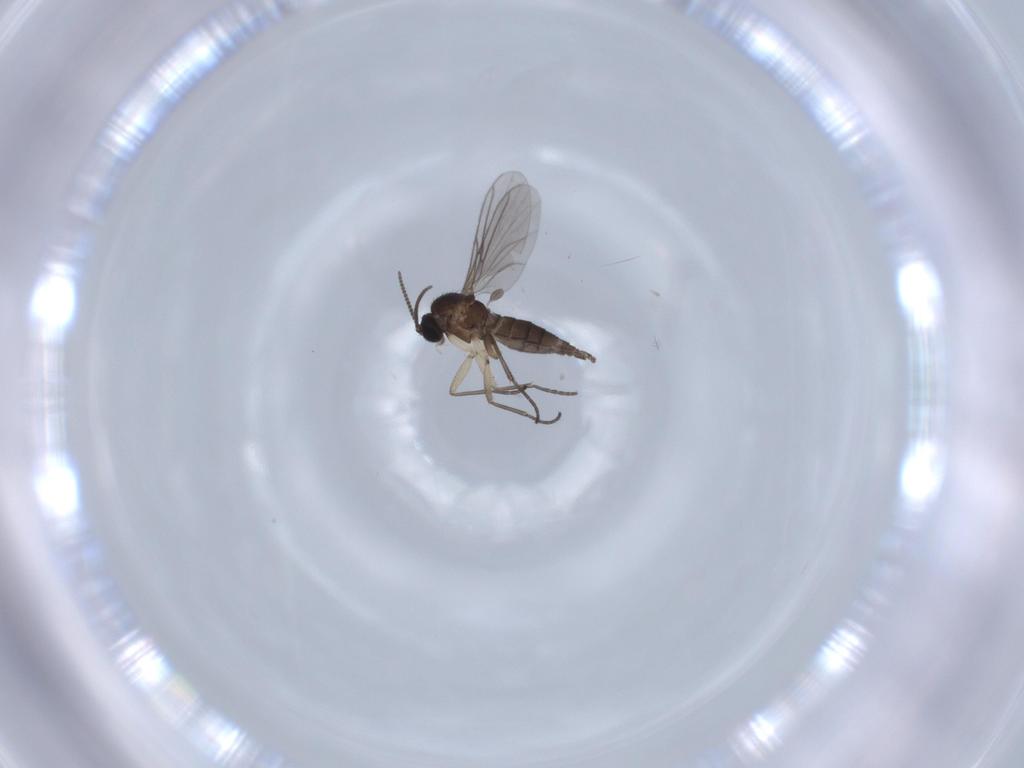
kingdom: Animalia
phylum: Arthropoda
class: Insecta
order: Diptera
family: Sciaridae
